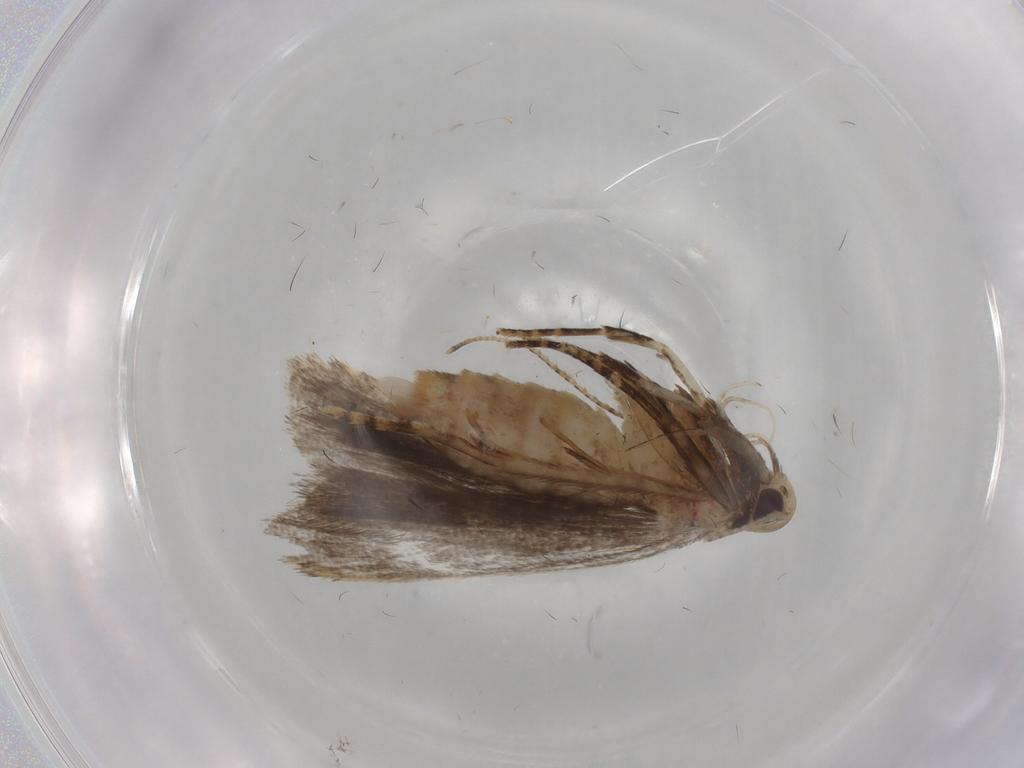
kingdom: Animalia
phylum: Arthropoda
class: Insecta
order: Lepidoptera
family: Gelechiidae
